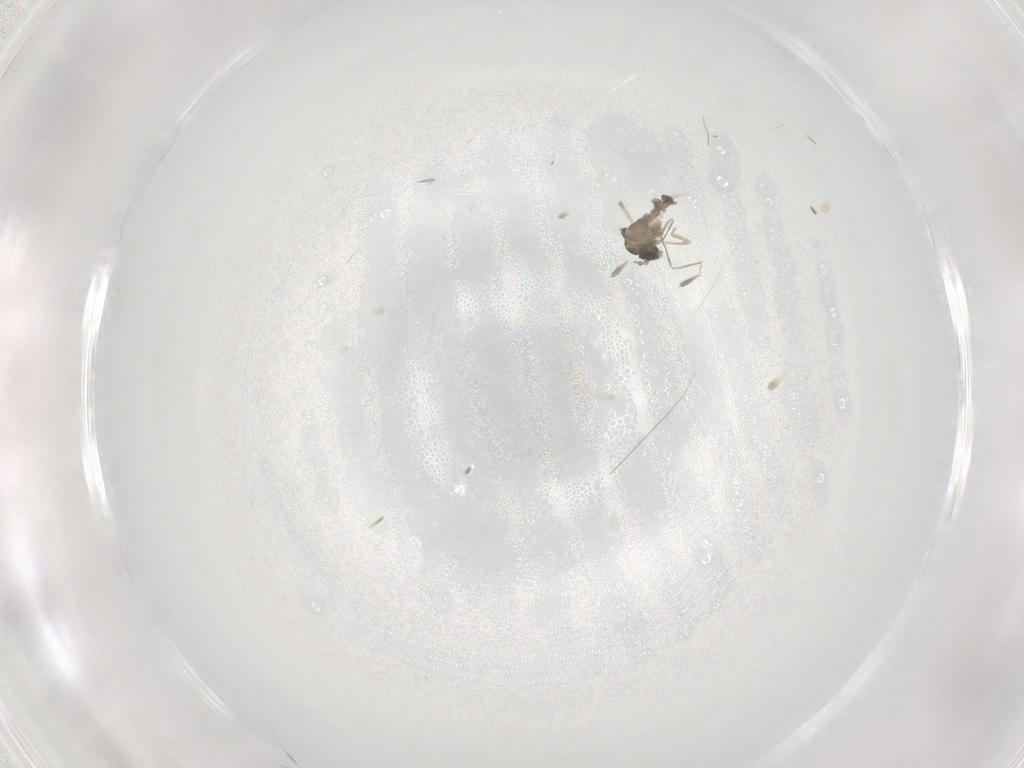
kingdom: Animalia
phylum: Arthropoda
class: Insecta
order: Diptera
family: Cecidomyiidae
